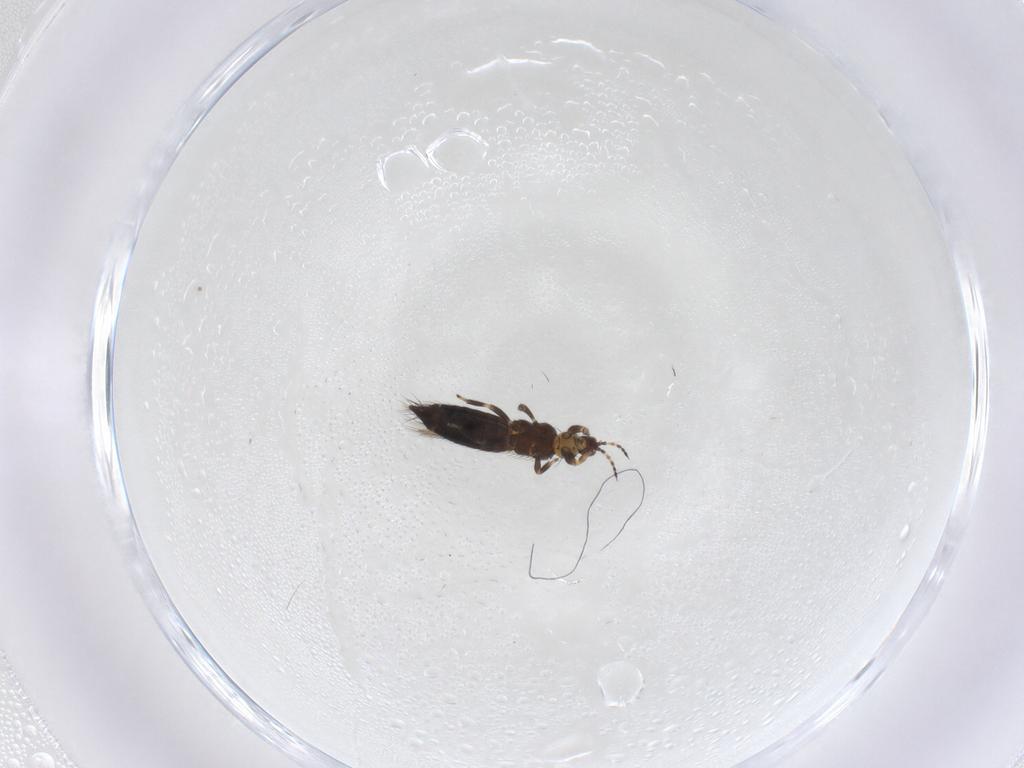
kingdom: Animalia
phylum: Arthropoda
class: Insecta
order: Thysanoptera
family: Thripidae
